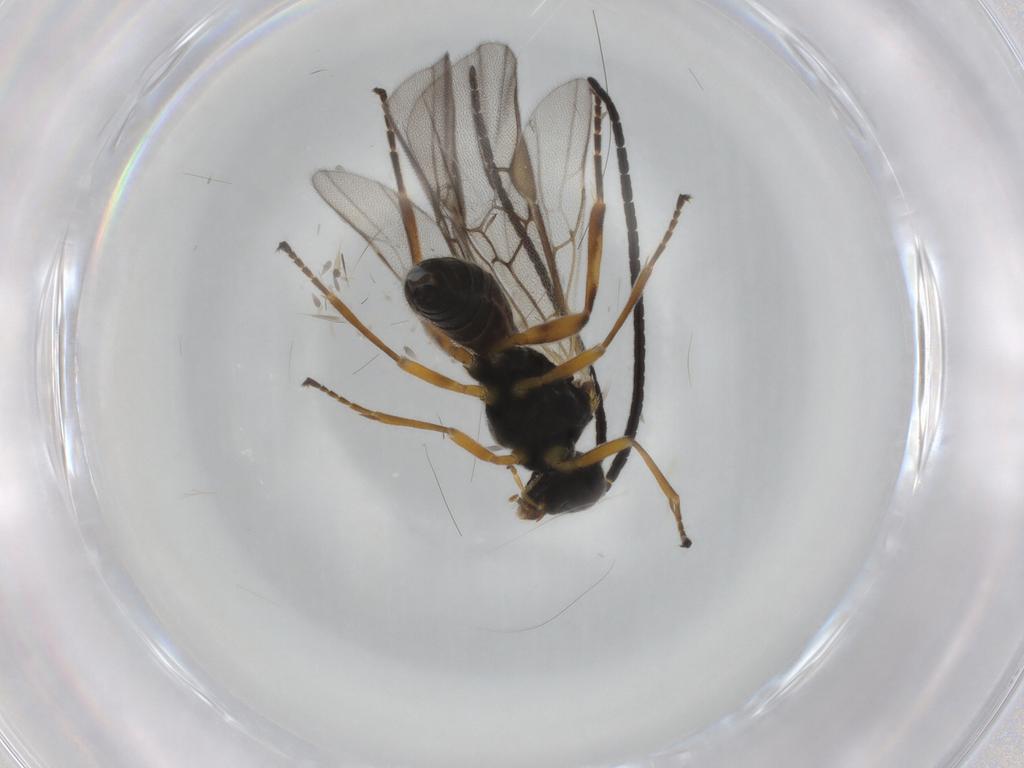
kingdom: Animalia
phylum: Arthropoda
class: Insecta
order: Hymenoptera
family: Braconidae
